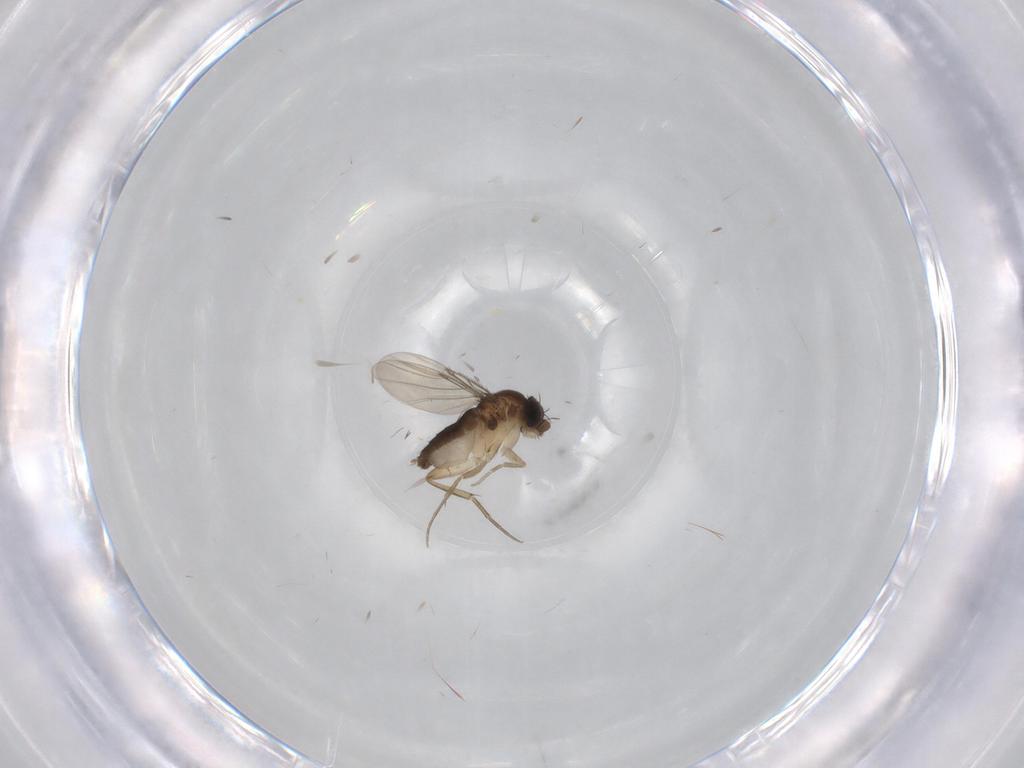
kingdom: Animalia
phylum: Arthropoda
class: Insecta
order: Diptera
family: Phoridae
